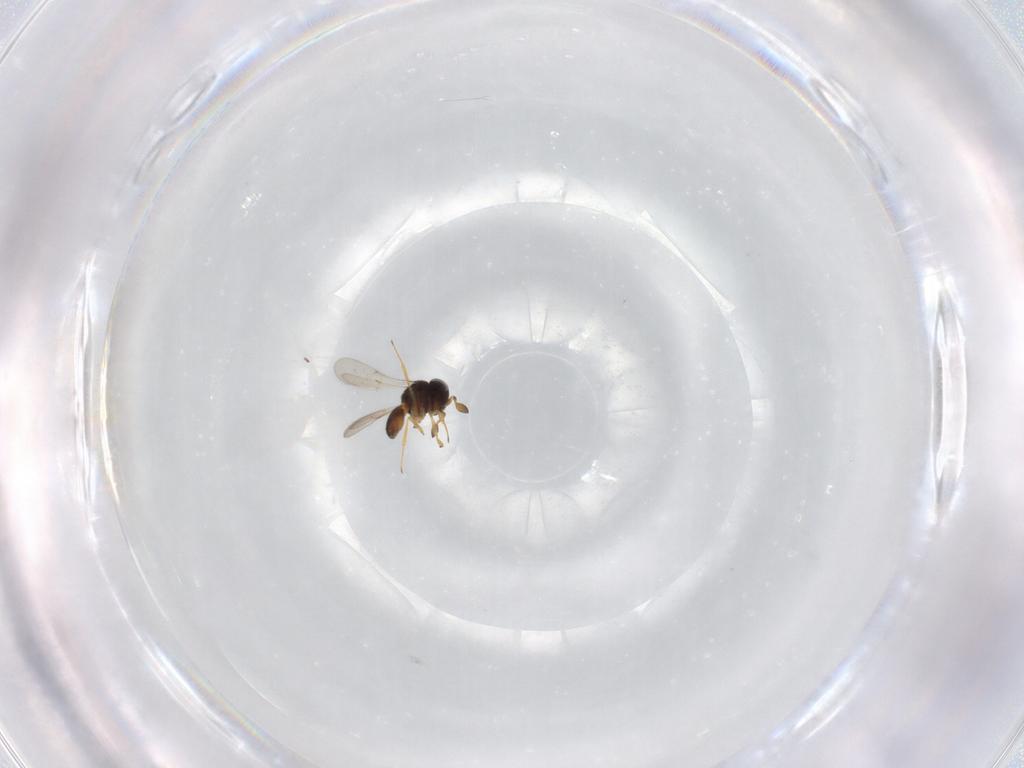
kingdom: Animalia
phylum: Arthropoda
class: Insecta
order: Hymenoptera
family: Scelionidae
